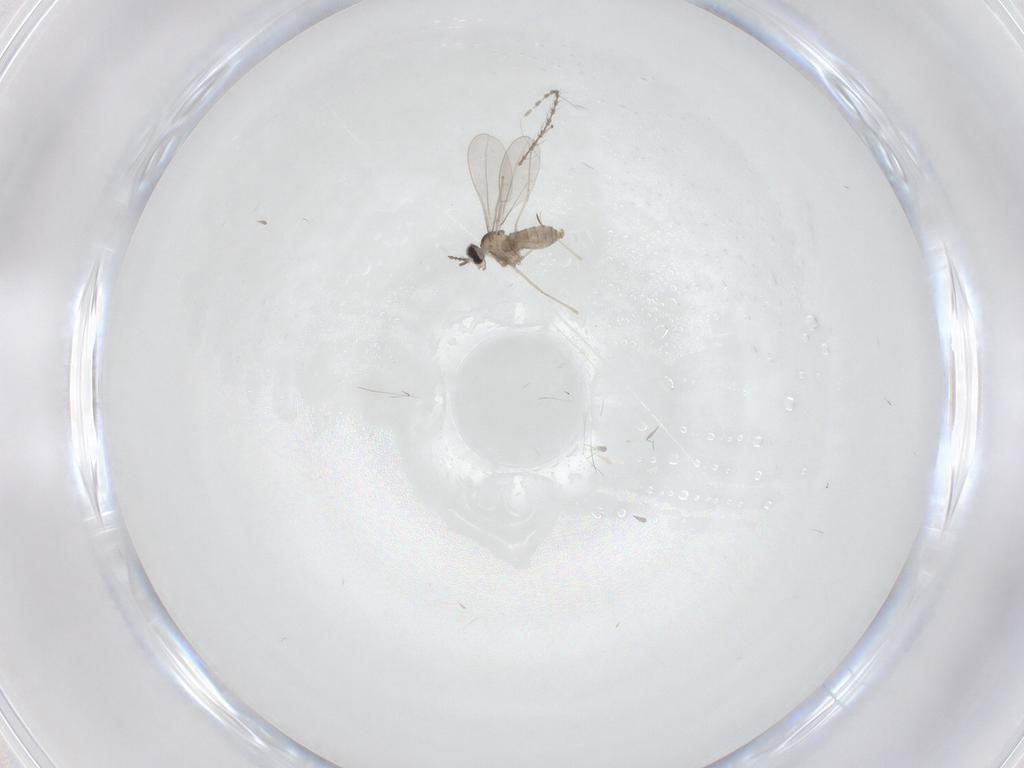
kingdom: Animalia
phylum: Arthropoda
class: Insecta
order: Diptera
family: Cecidomyiidae
